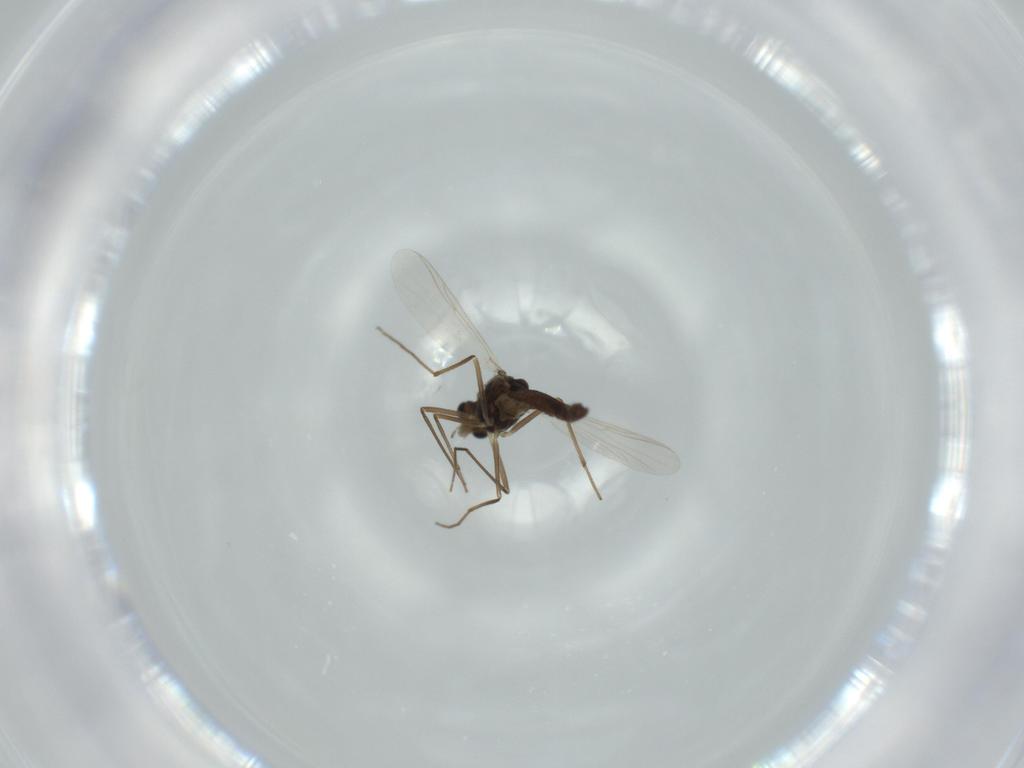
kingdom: Animalia
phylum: Arthropoda
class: Insecta
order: Diptera
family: Chironomidae
